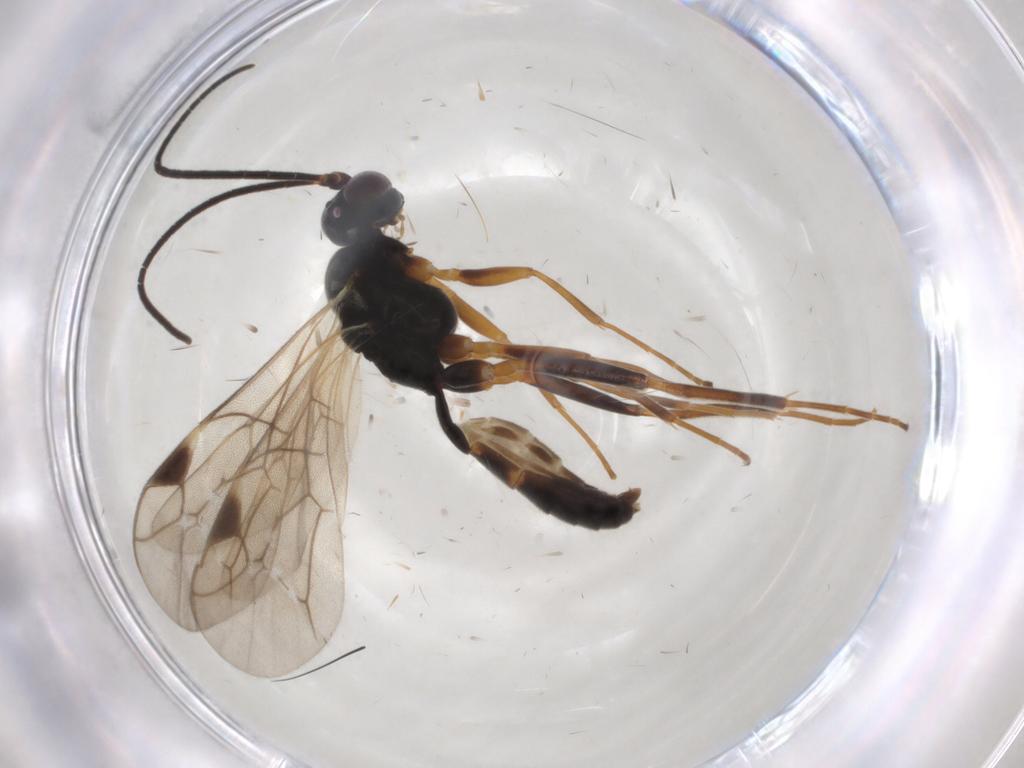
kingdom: Animalia
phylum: Arthropoda
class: Insecta
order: Hymenoptera
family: Ichneumonidae
